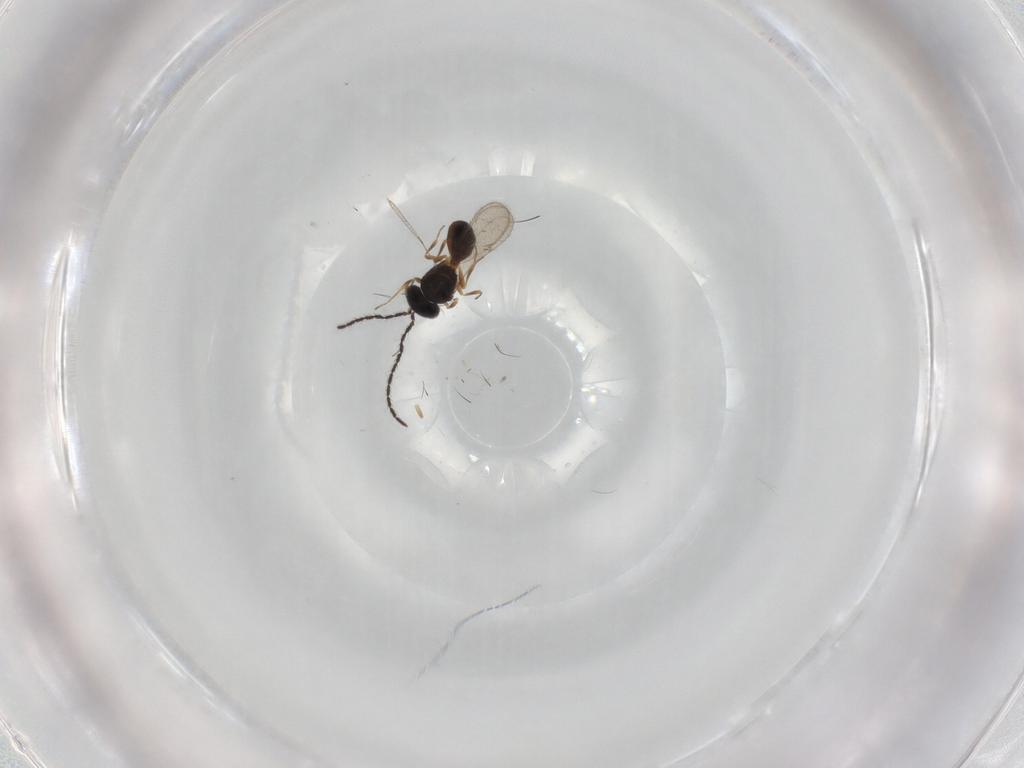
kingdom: Animalia
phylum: Arthropoda
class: Insecta
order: Hymenoptera
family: Scelionidae
